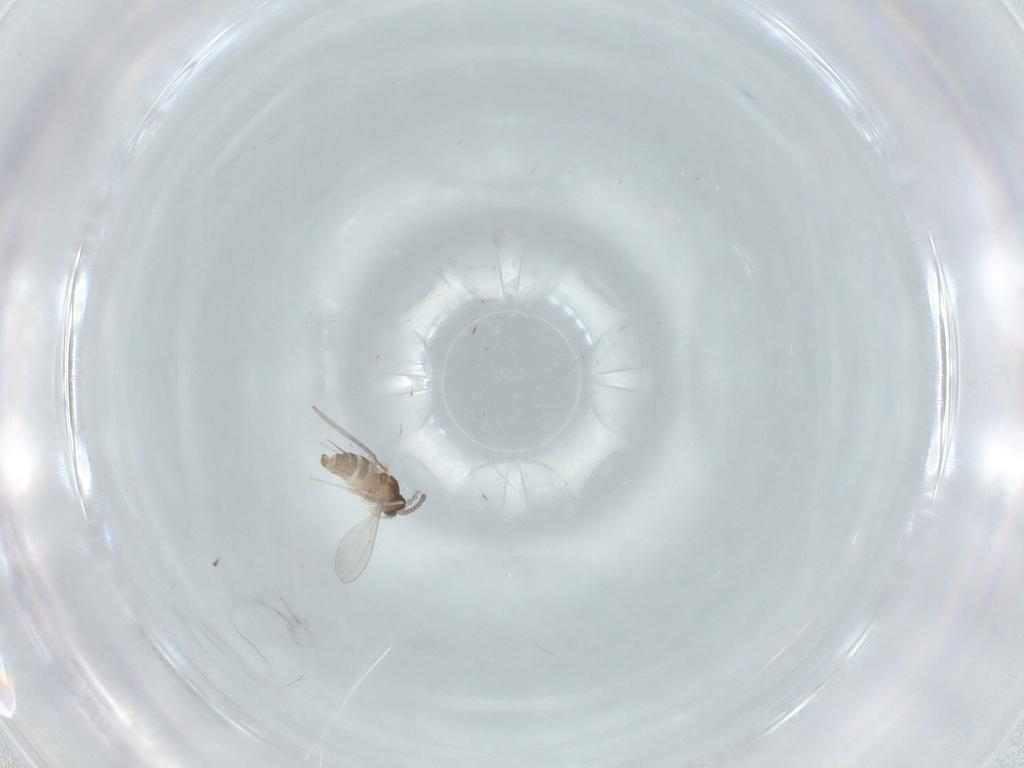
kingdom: Animalia
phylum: Arthropoda
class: Insecta
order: Diptera
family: Cecidomyiidae
